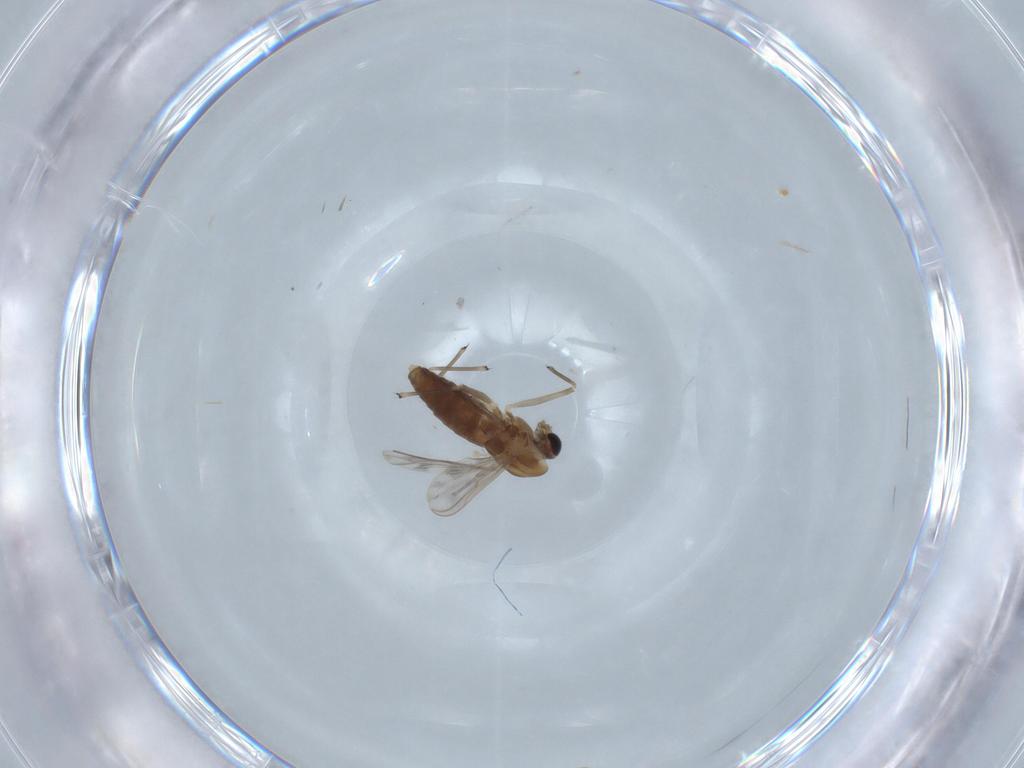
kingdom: Animalia
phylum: Arthropoda
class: Insecta
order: Diptera
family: Chironomidae
